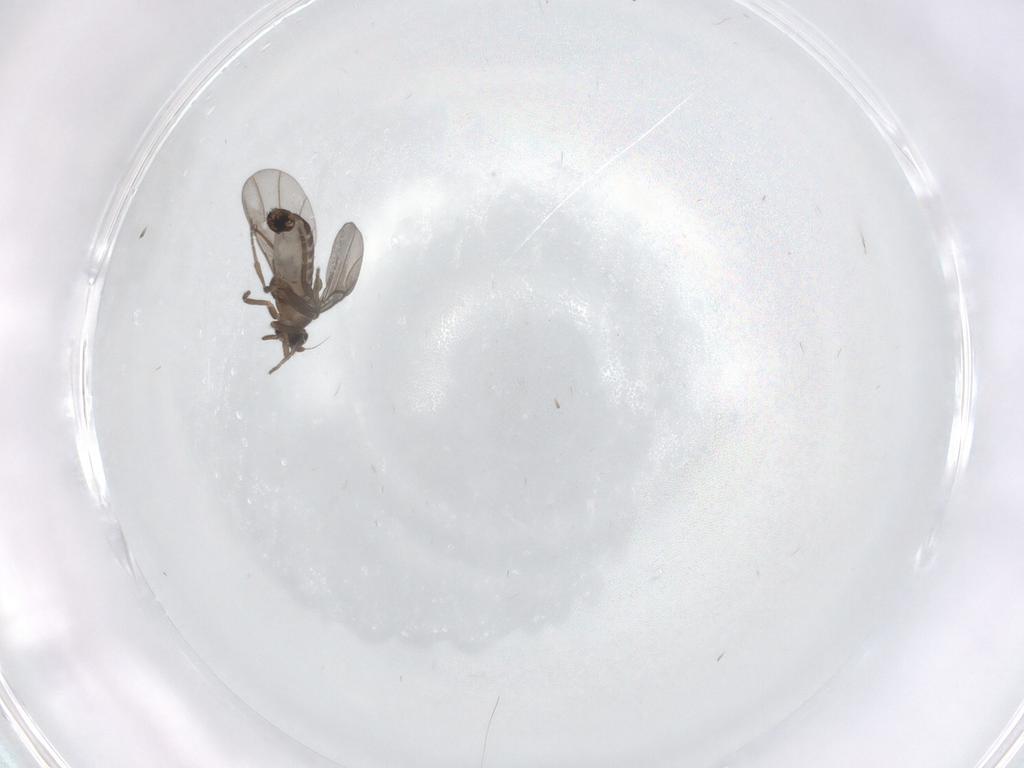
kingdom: Animalia
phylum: Arthropoda
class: Insecta
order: Diptera
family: Phoridae
